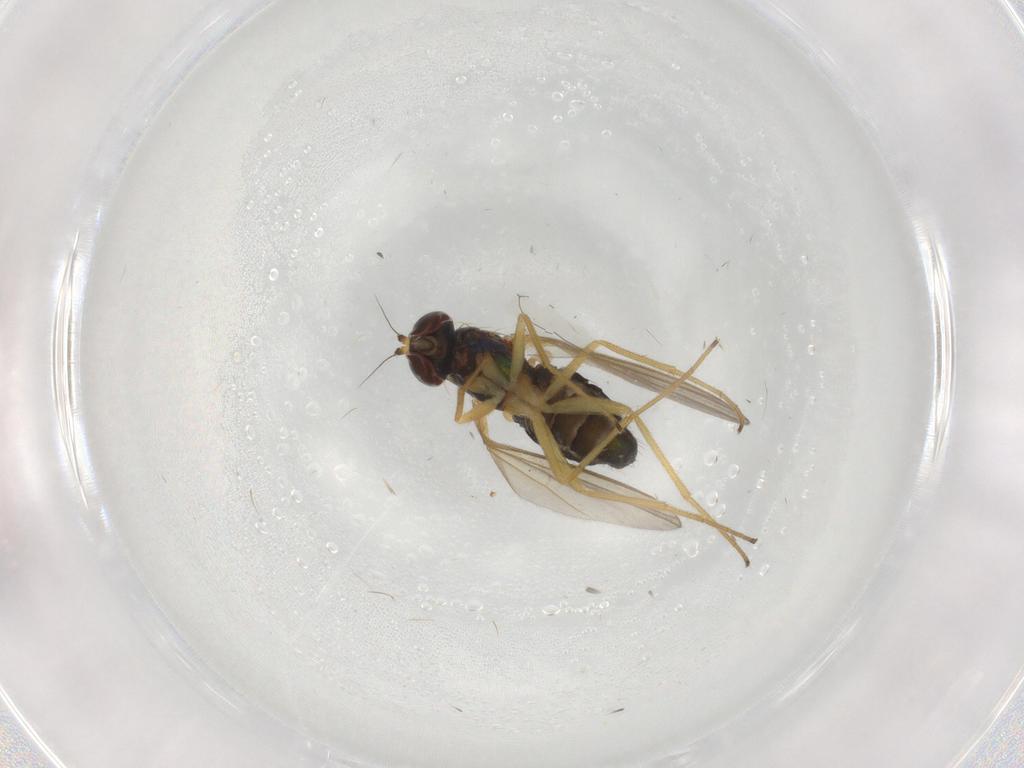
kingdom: Animalia
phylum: Arthropoda
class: Insecta
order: Diptera
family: Dolichopodidae
